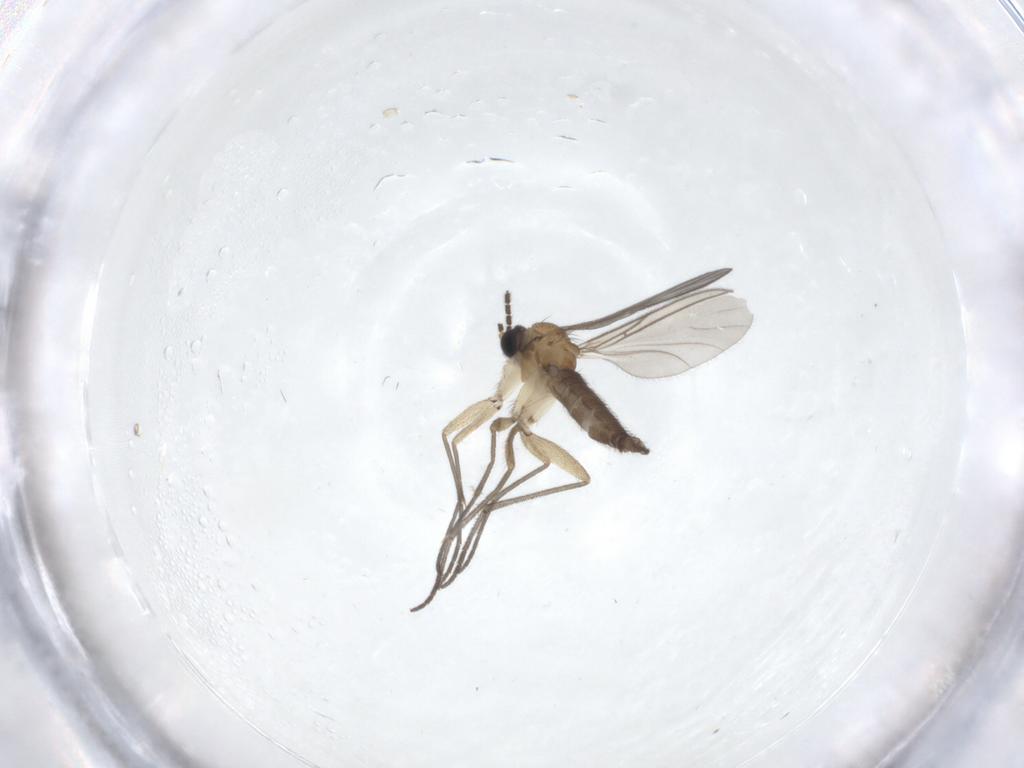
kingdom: Animalia
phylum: Arthropoda
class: Insecta
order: Diptera
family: Sciaridae
